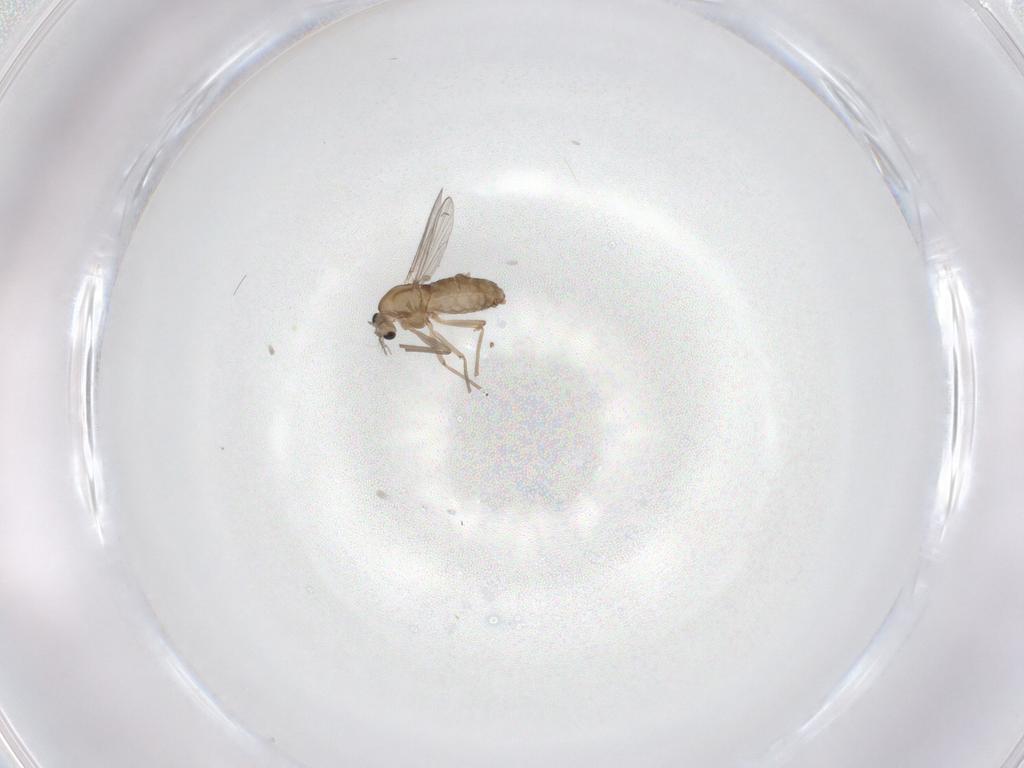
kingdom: Animalia
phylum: Arthropoda
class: Insecta
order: Diptera
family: Chironomidae
